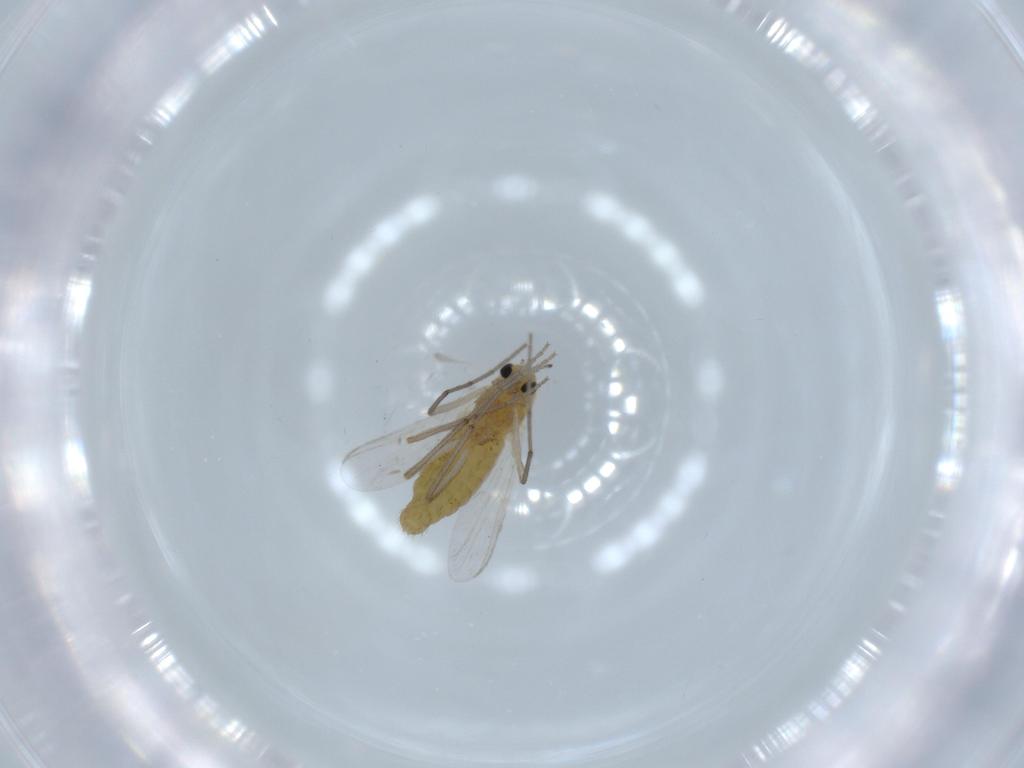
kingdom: Animalia
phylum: Arthropoda
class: Insecta
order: Diptera
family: Chironomidae
